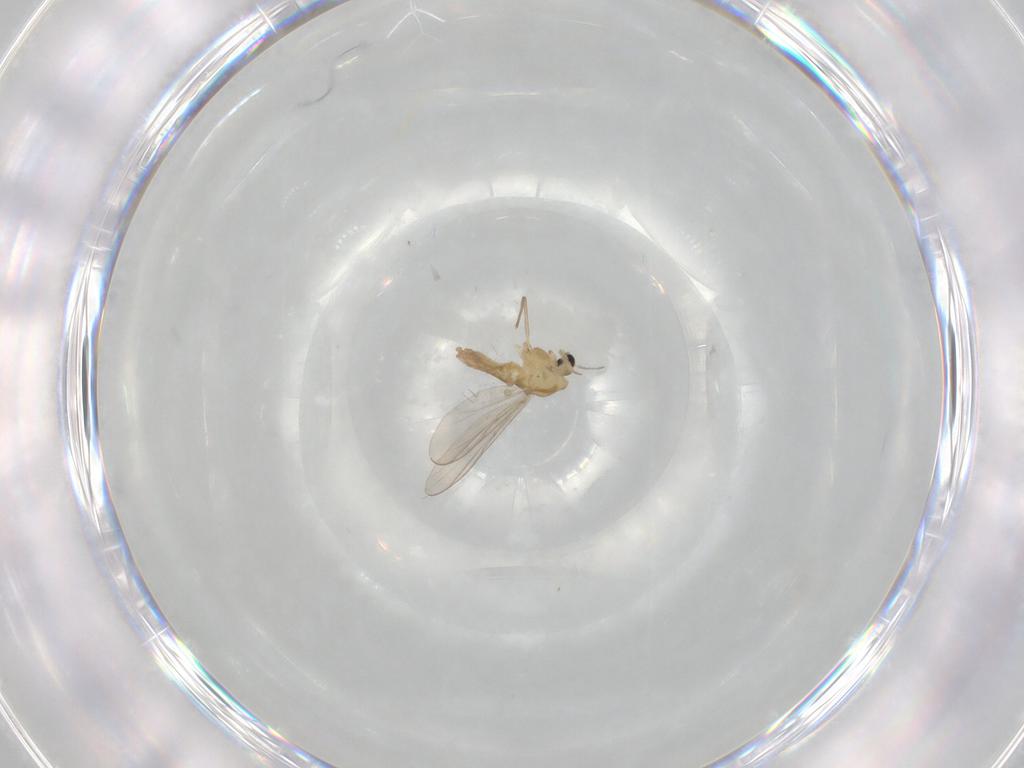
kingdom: Animalia
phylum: Arthropoda
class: Insecta
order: Diptera
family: Chironomidae
